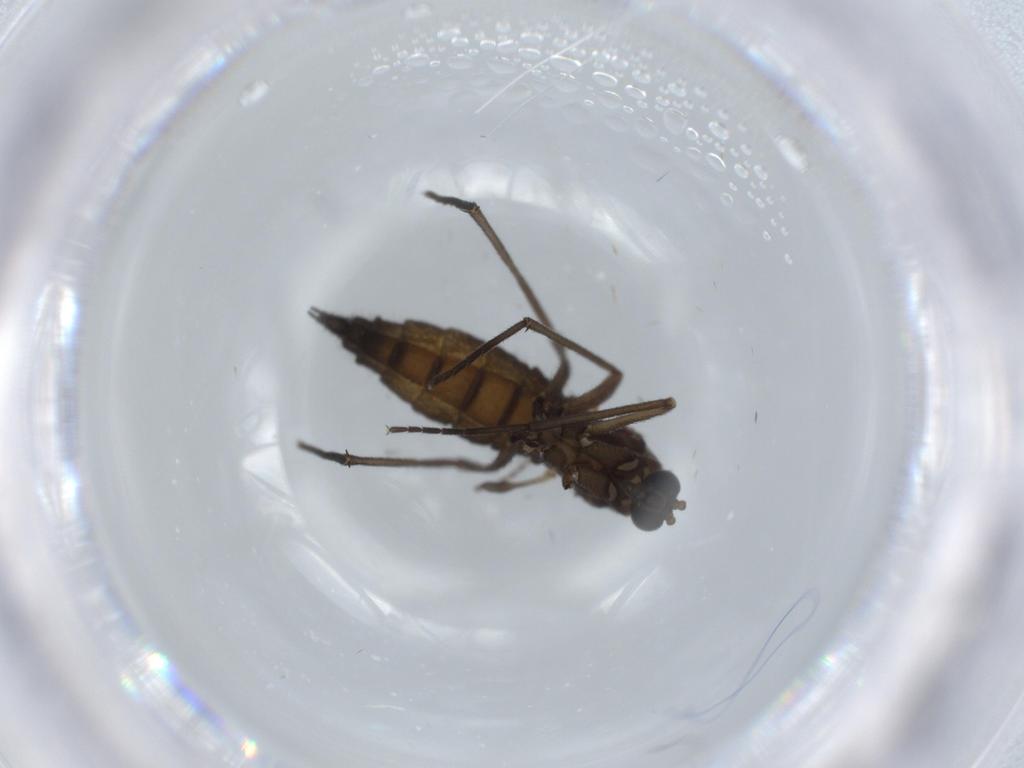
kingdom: Animalia
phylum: Arthropoda
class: Insecta
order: Diptera
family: Sciaridae
